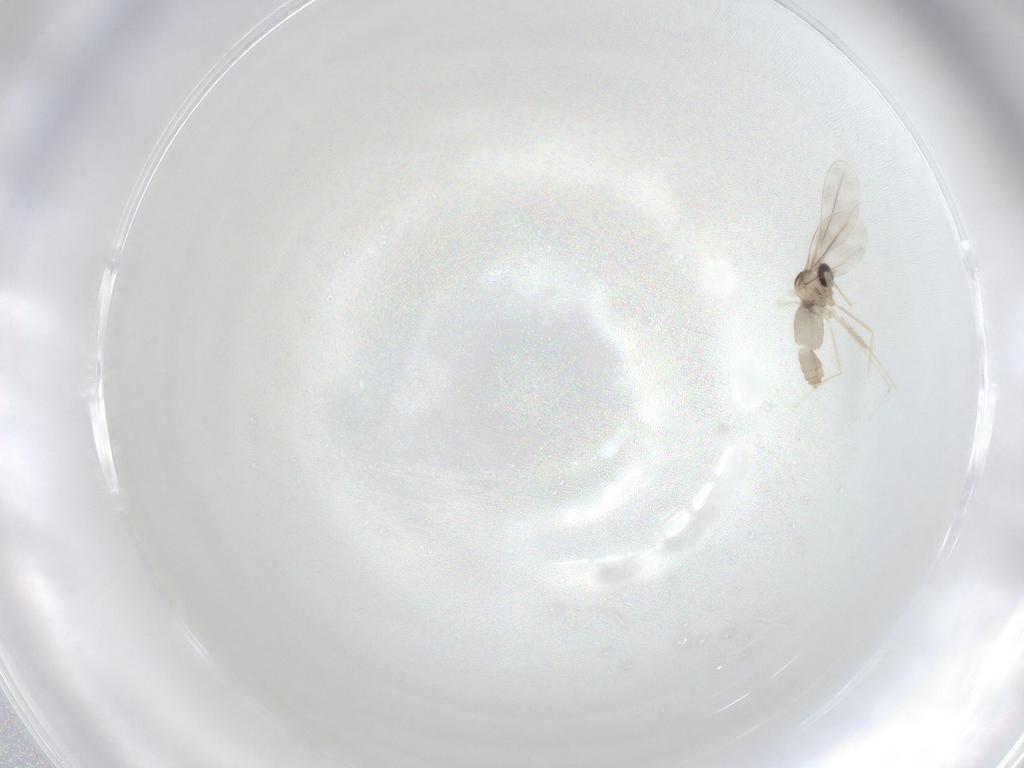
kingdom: Animalia
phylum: Arthropoda
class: Insecta
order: Diptera
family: Cecidomyiidae
